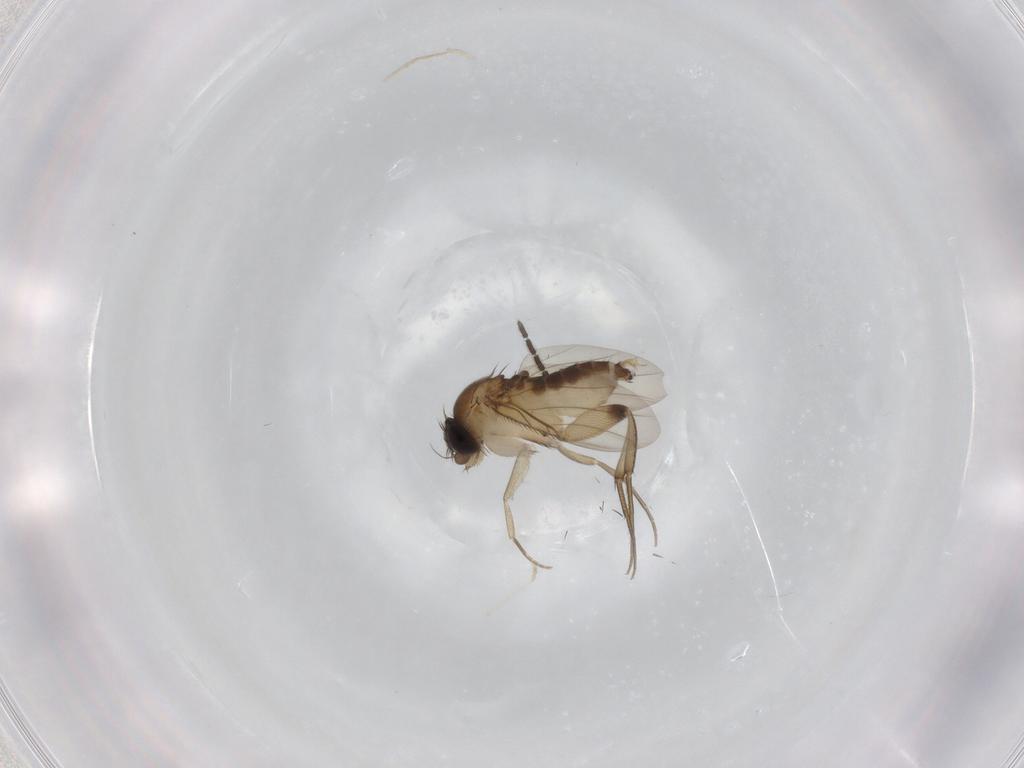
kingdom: Animalia
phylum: Arthropoda
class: Insecta
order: Diptera
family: Phoridae
